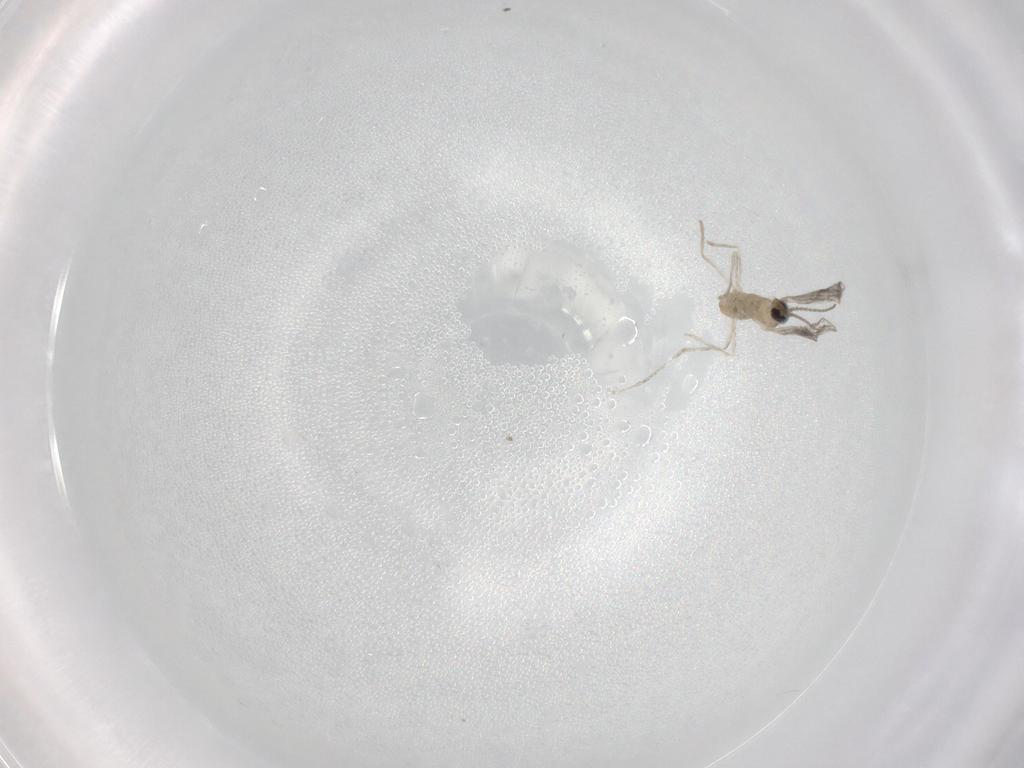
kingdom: Animalia
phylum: Arthropoda
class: Insecta
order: Diptera
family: Cecidomyiidae
